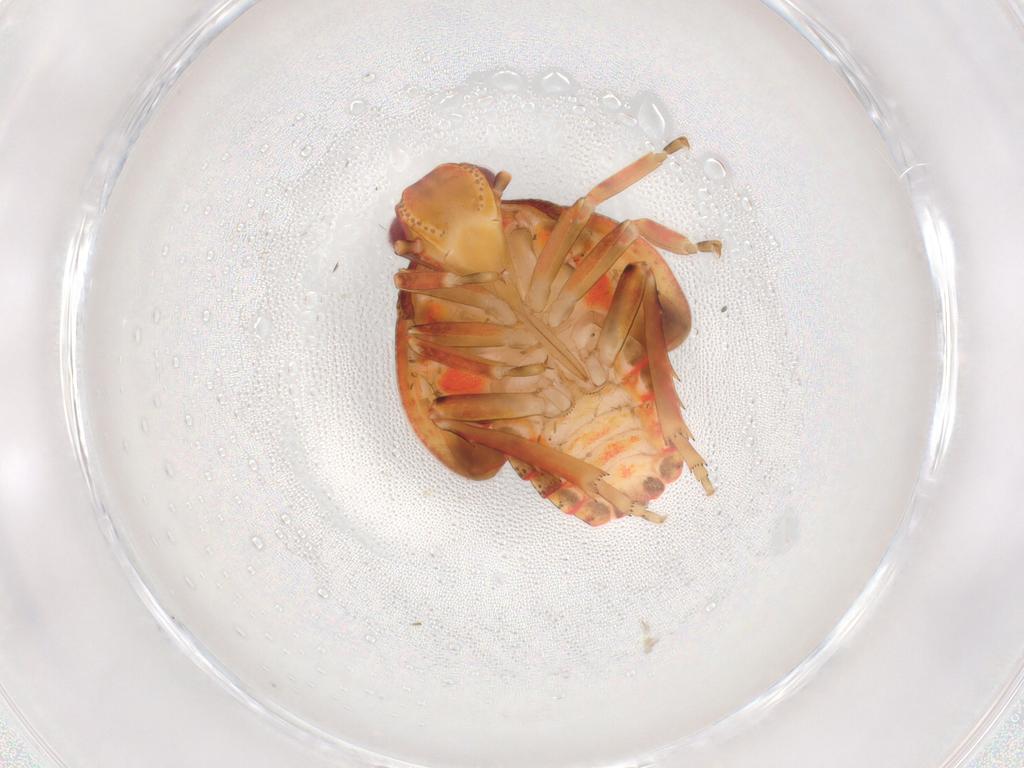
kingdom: Animalia
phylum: Arthropoda
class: Insecta
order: Hemiptera
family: Flatidae
